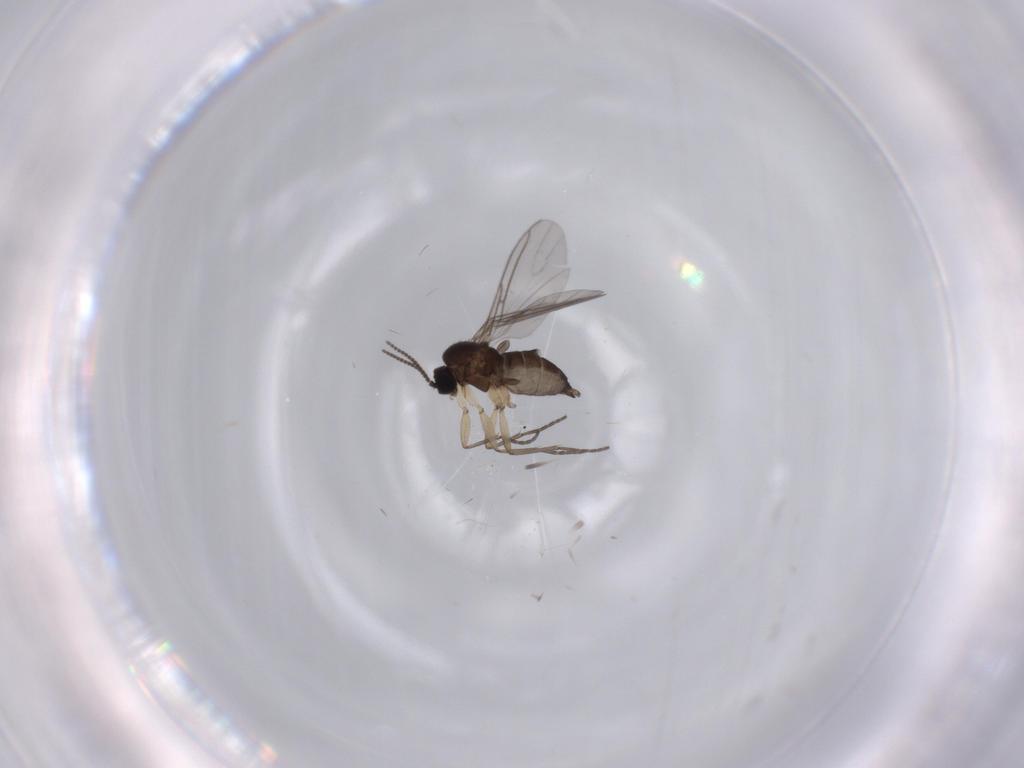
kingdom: Animalia
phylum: Arthropoda
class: Insecta
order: Diptera
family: Sciaridae
